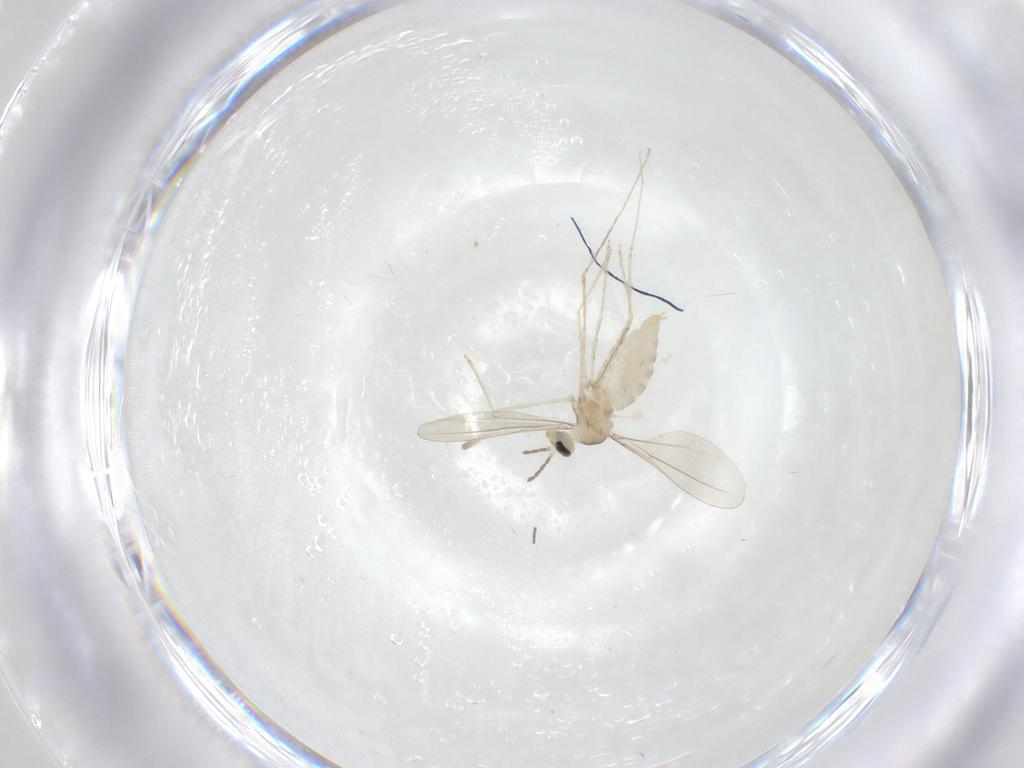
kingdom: Animalia
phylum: Arthropoda
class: Insecta
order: Diptera
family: Cecidomyiidae
